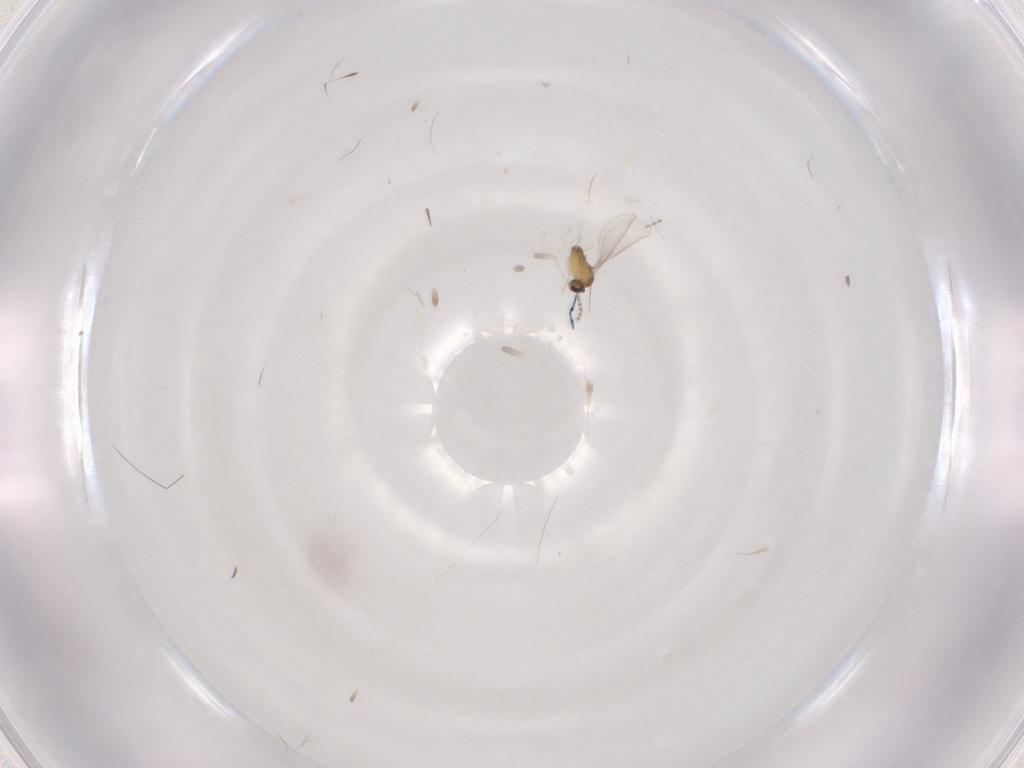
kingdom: Animalia
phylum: Arthropoda
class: Insecta
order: Diptera
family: Cecidomyiidae
